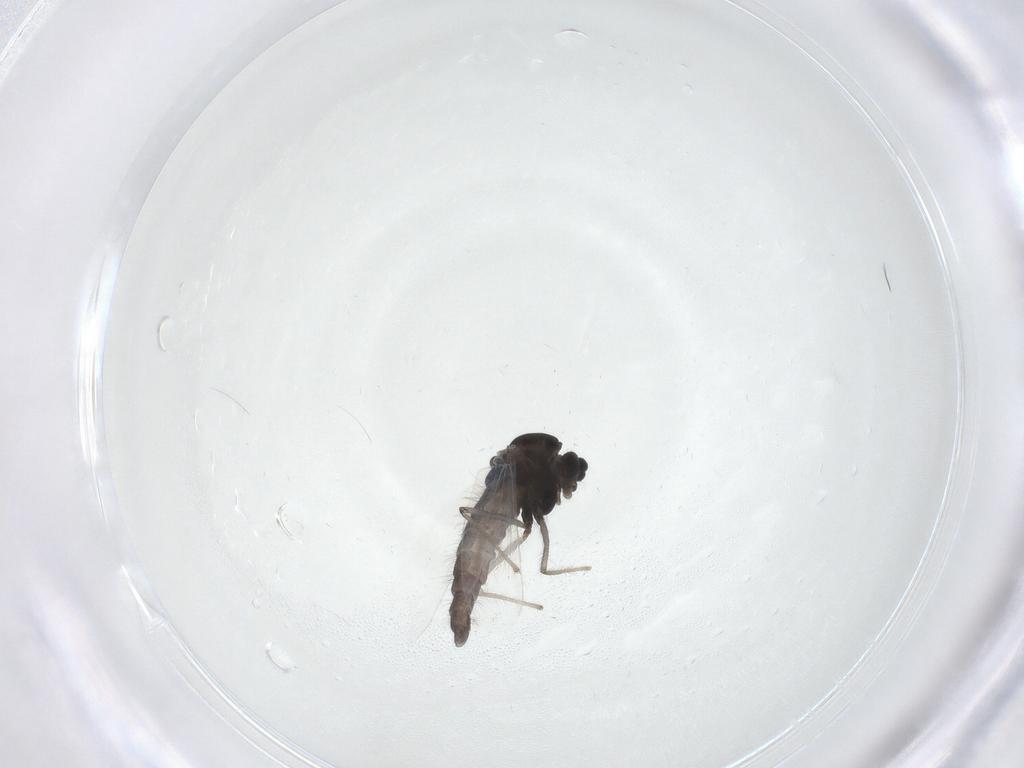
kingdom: Animalia
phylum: Arthropoda
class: Insecta
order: Diptera
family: Chironomidae
